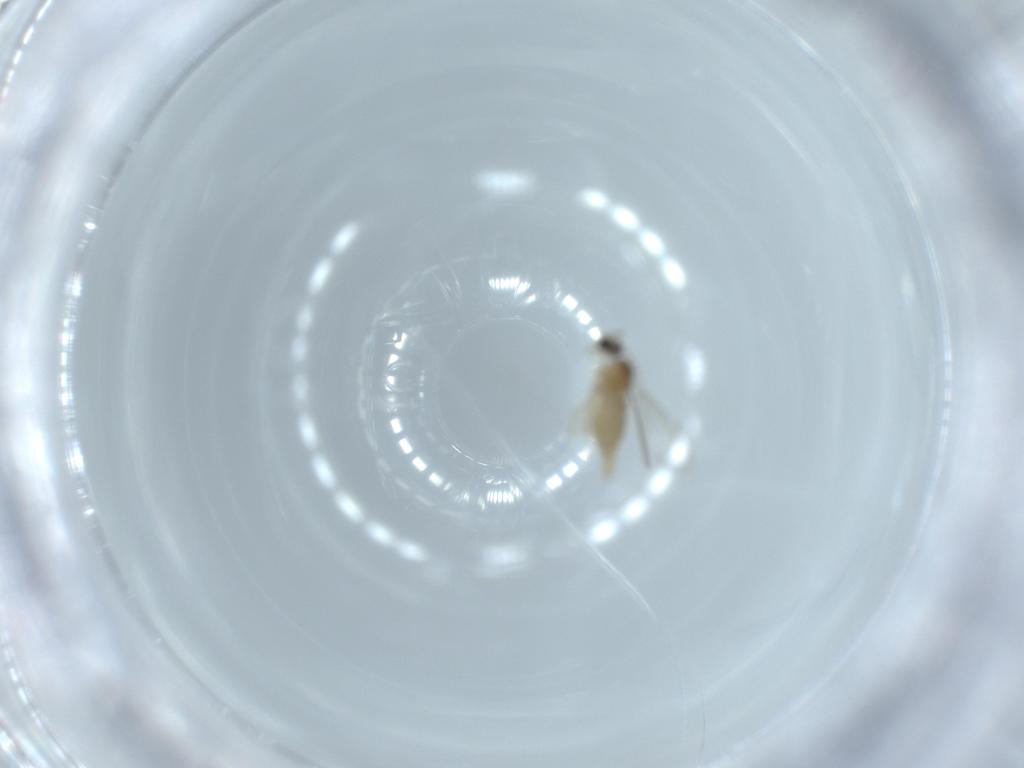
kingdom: Animalia
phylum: Arthropoda
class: Insecta
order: Diptera
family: Cecidomyiidae
